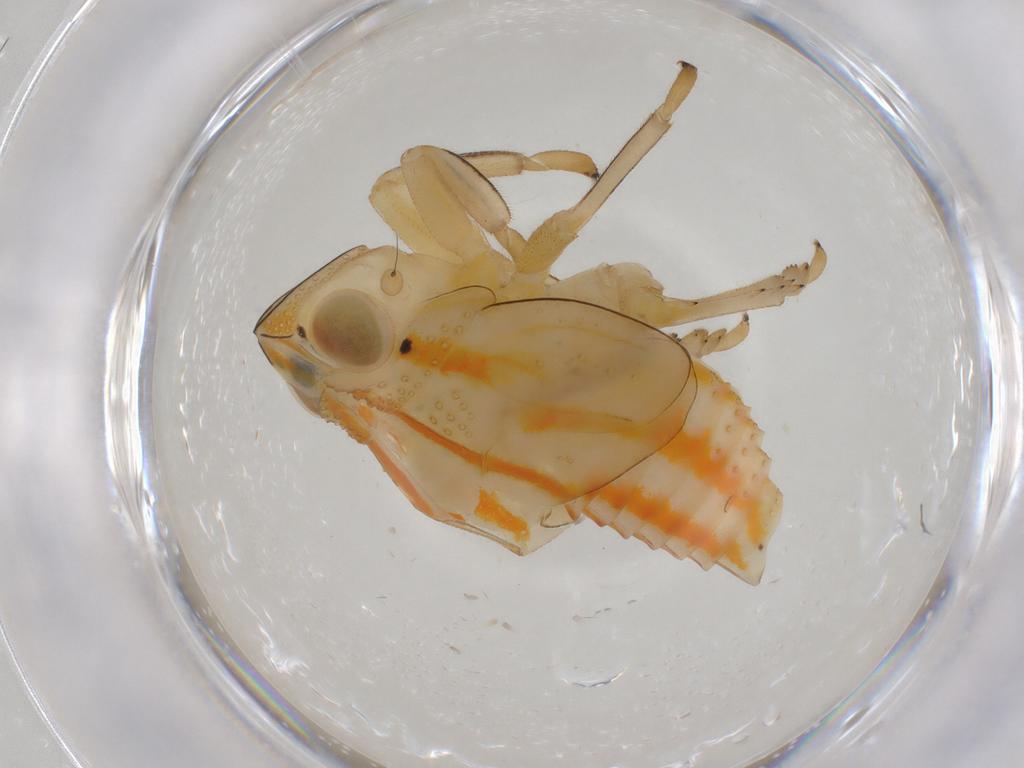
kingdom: Animalia
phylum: Arthropoda
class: Insecta
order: Hemiptera
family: Issidae
